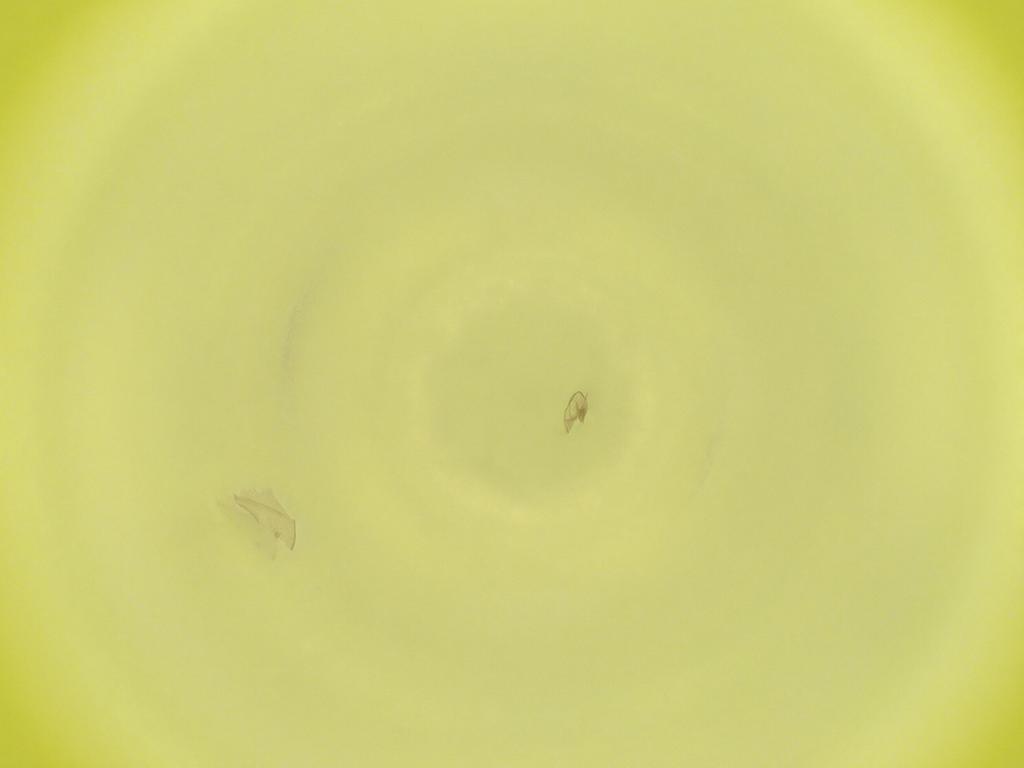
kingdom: Animalia
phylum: Arthropoda
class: Insecta
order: Diptera
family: Cecidomyiidae
